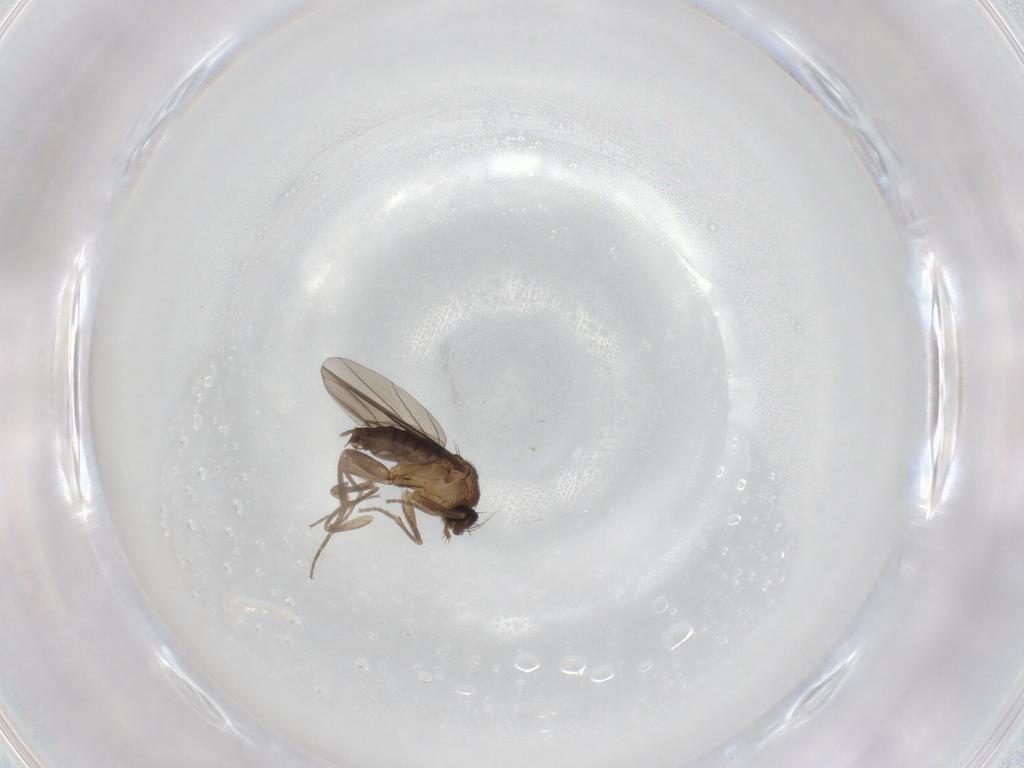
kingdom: Animalia
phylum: Arthropoda
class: Insecta
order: Diptera
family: Phoridae
